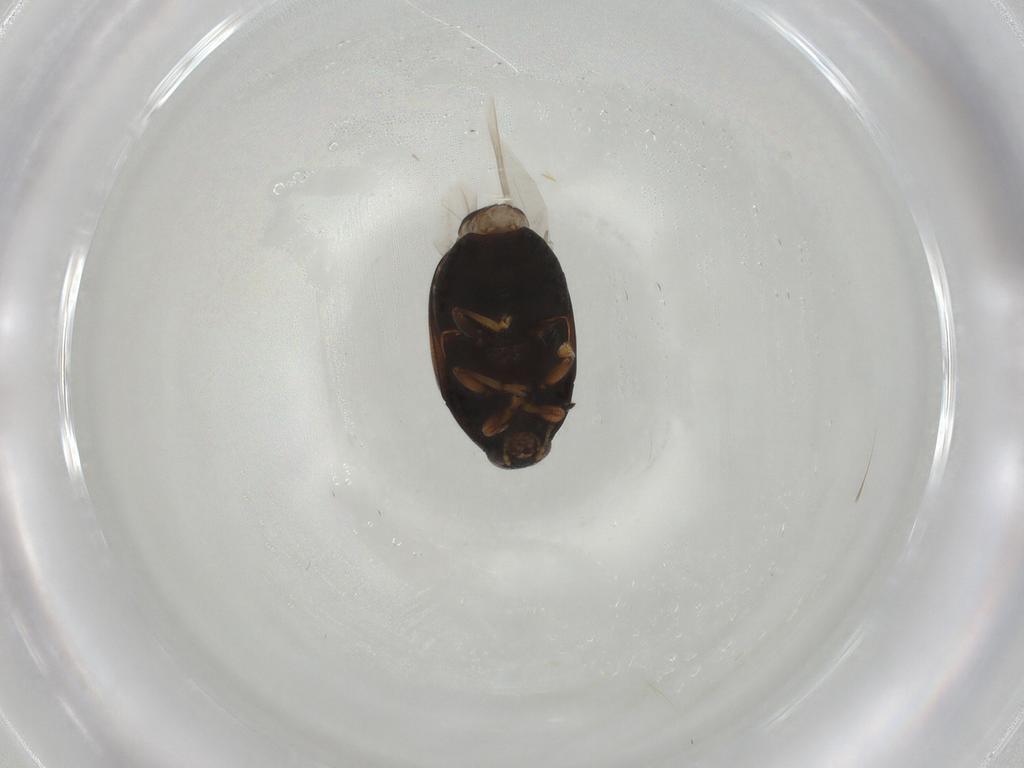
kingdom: Animalia
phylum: Arthropoda
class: Insecta
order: Coleoptera
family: Chrysomelidae
